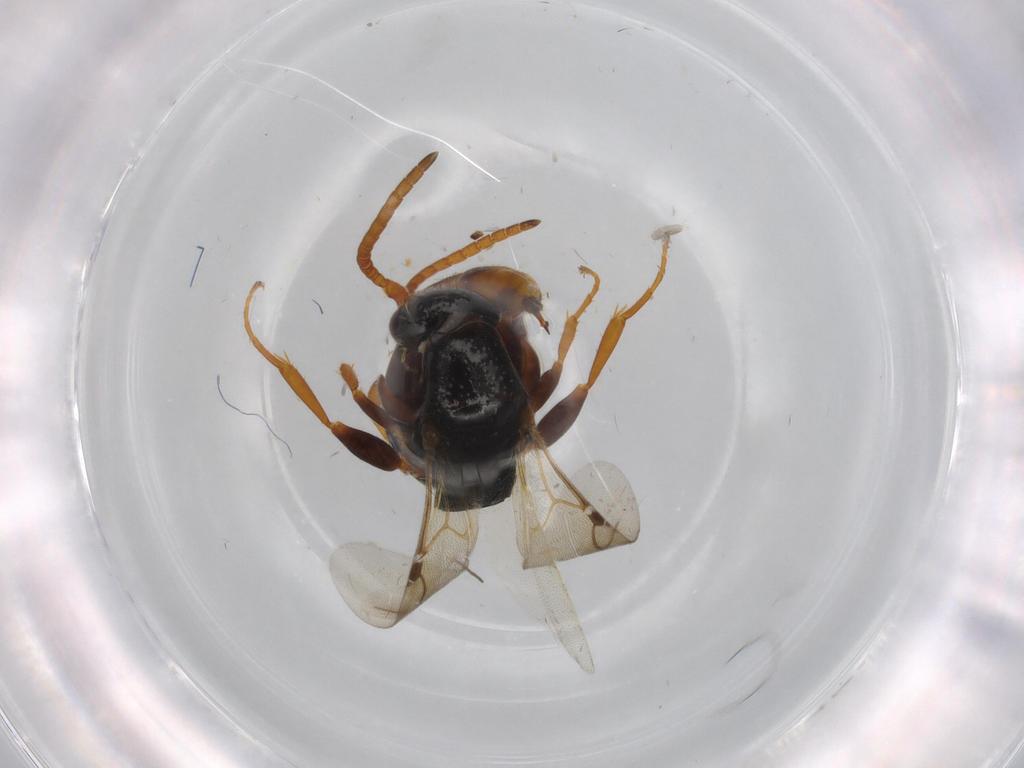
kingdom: Animalia
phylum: Arthropoda
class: Insecta
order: Hymenoptera
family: Bethylidae
